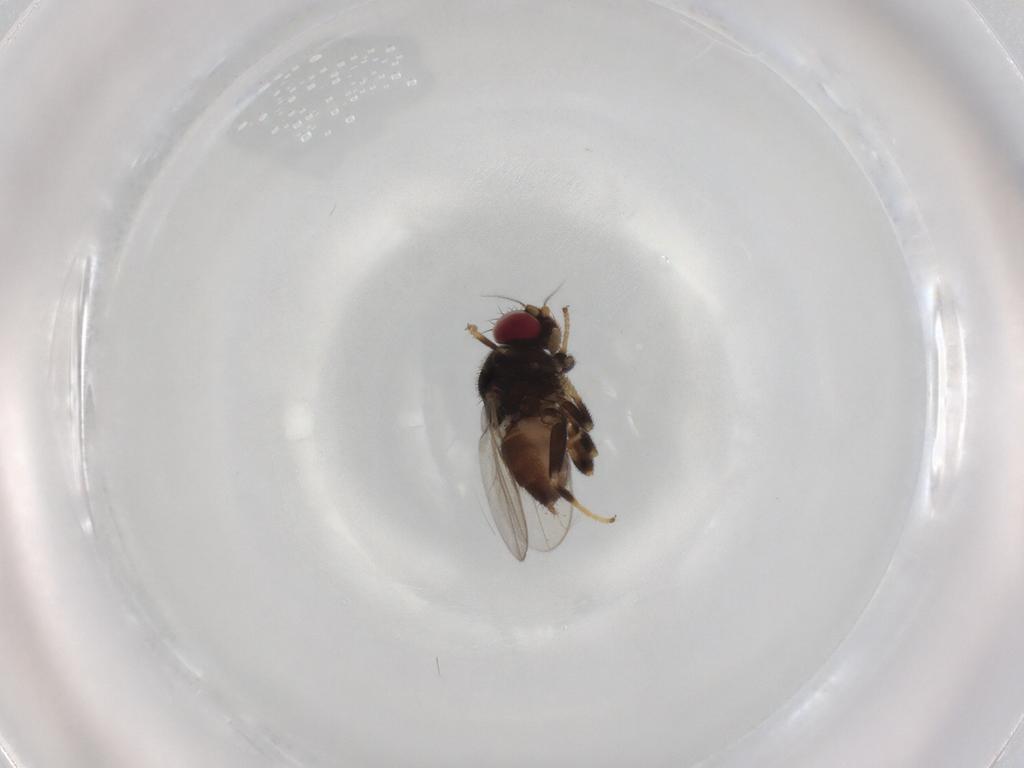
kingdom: Animalia
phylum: Arthropoda
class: Insecta
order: Diptera
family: Chloropidae
